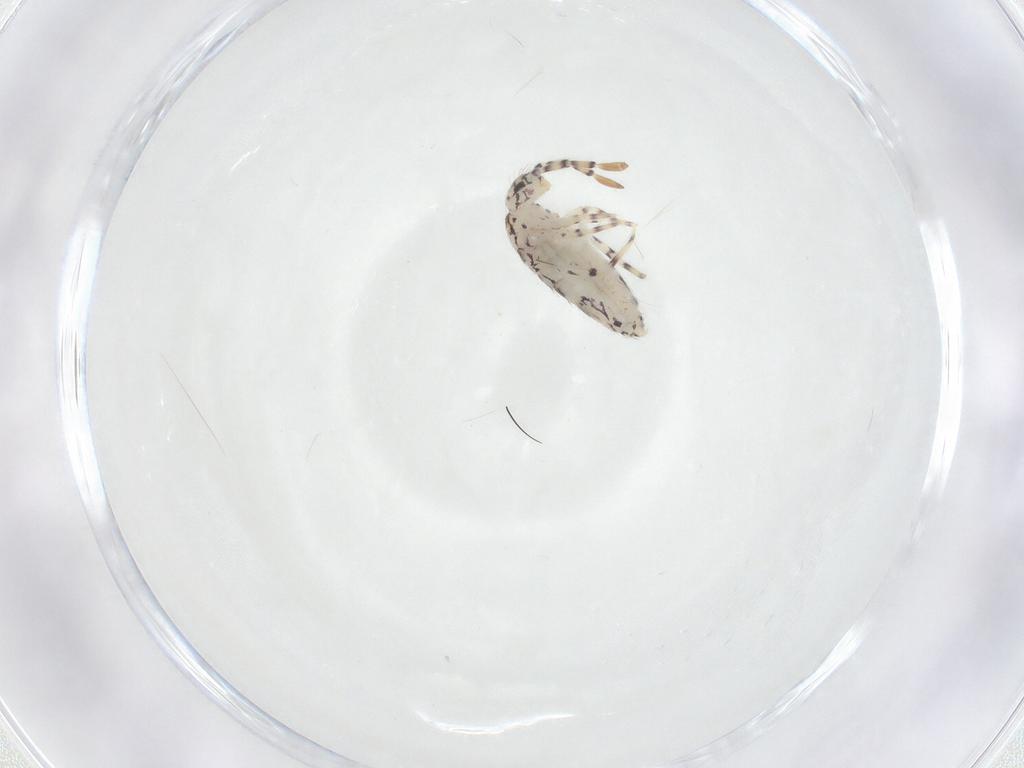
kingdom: Animalia
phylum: Arthropoda
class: Collembola
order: Entomobryomorpha
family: Entomobryidae
